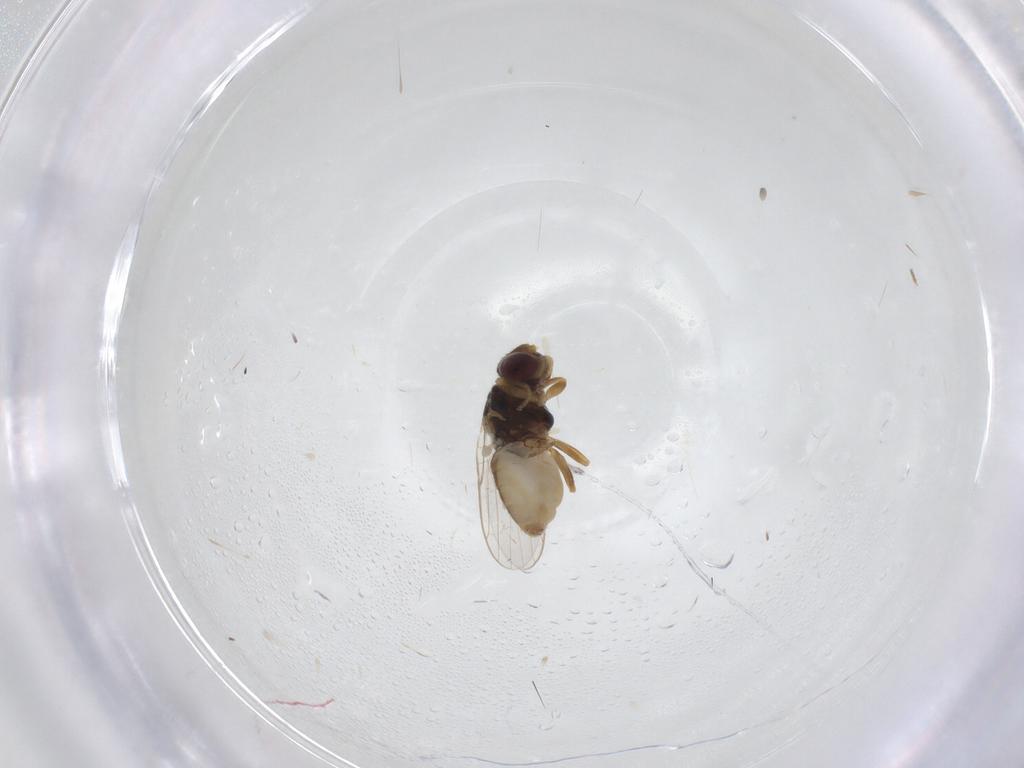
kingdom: Animalia
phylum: Arthropoda
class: Insecta
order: Diptera
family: Chloropidae
